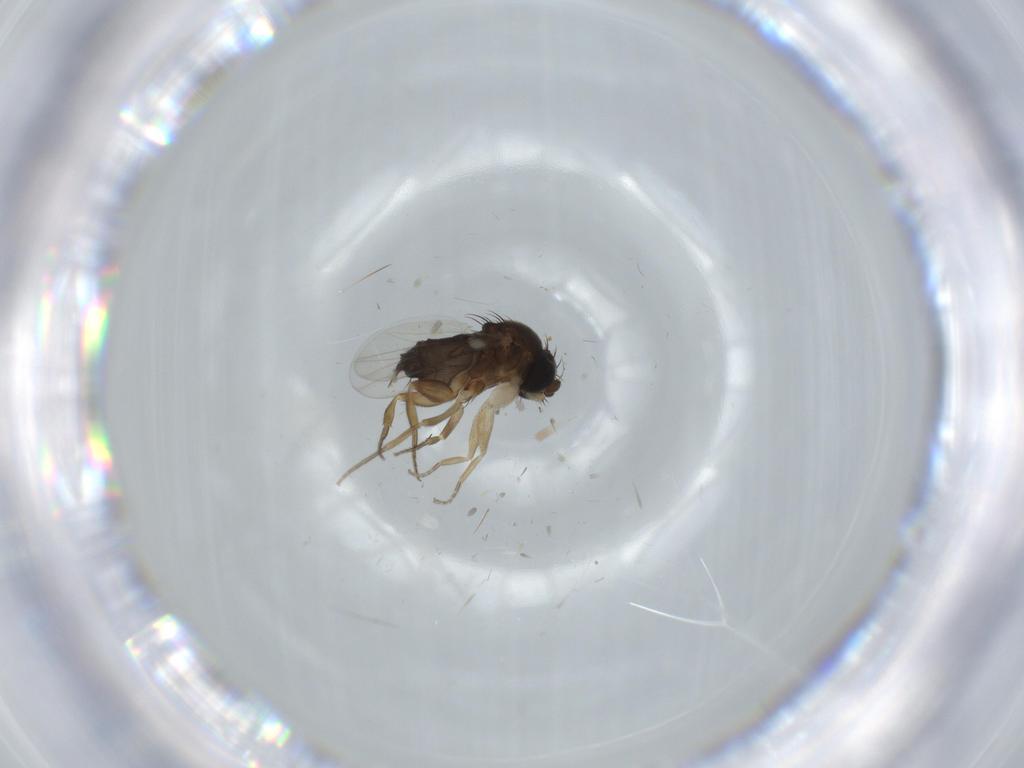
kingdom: Animalia
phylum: Arthropoda
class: Insecta
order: Diptera
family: Phoridae
